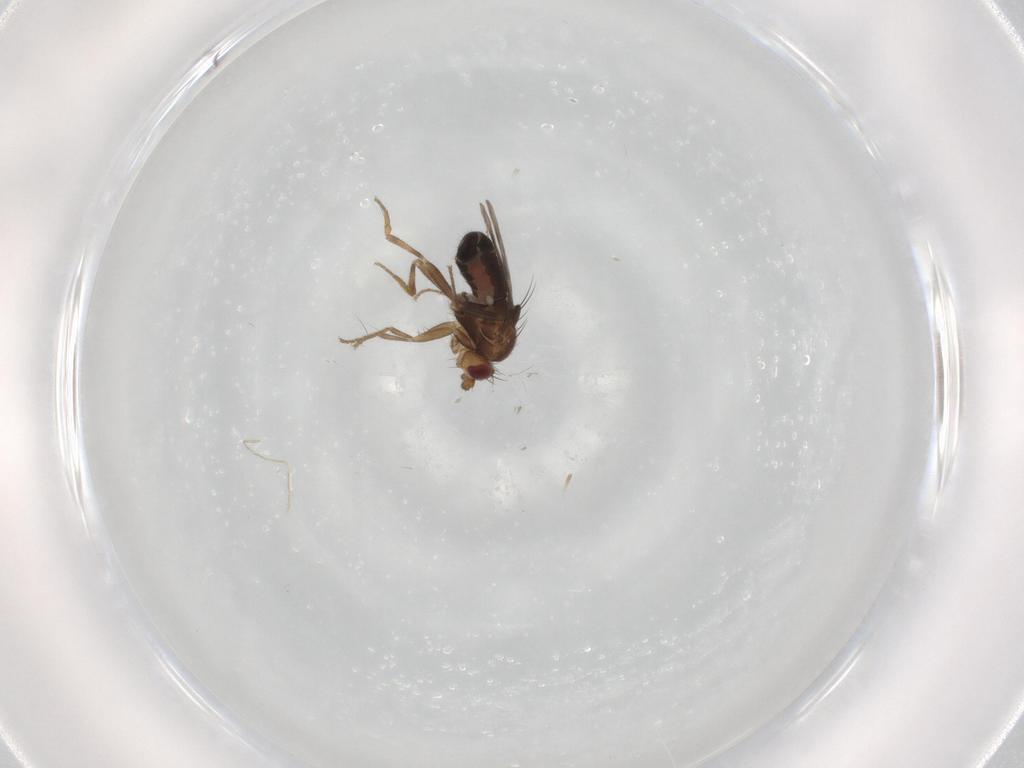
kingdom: Animalia
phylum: Arthropoda
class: Insecta
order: Diptera
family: Sphaeroceridae
